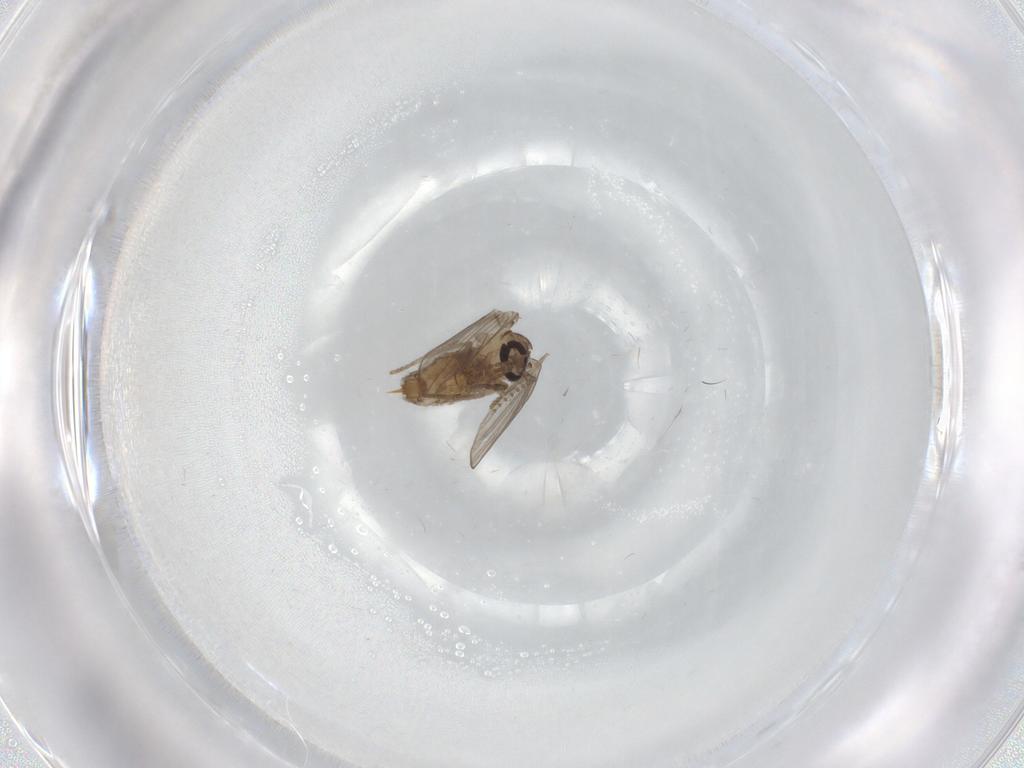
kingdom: Animalia
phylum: Arthropoda
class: Insecta
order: Diptera
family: Psychodidae
